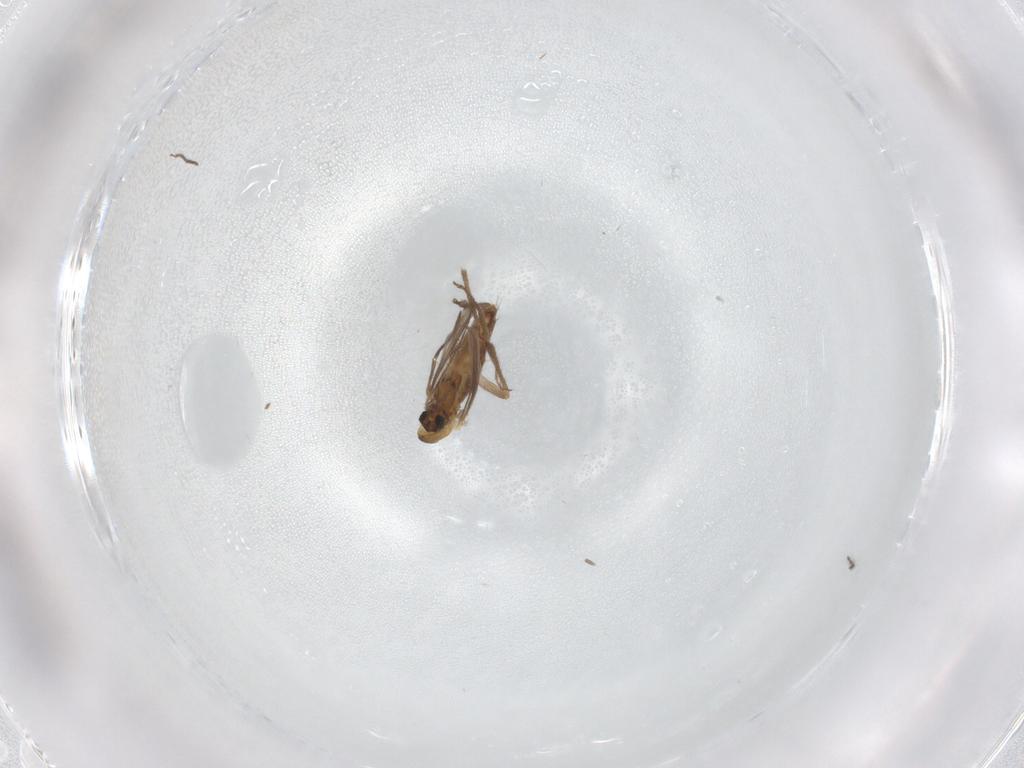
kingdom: Animalia
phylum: Arthropoda
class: Insecta
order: Diptera
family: Chironomidae
